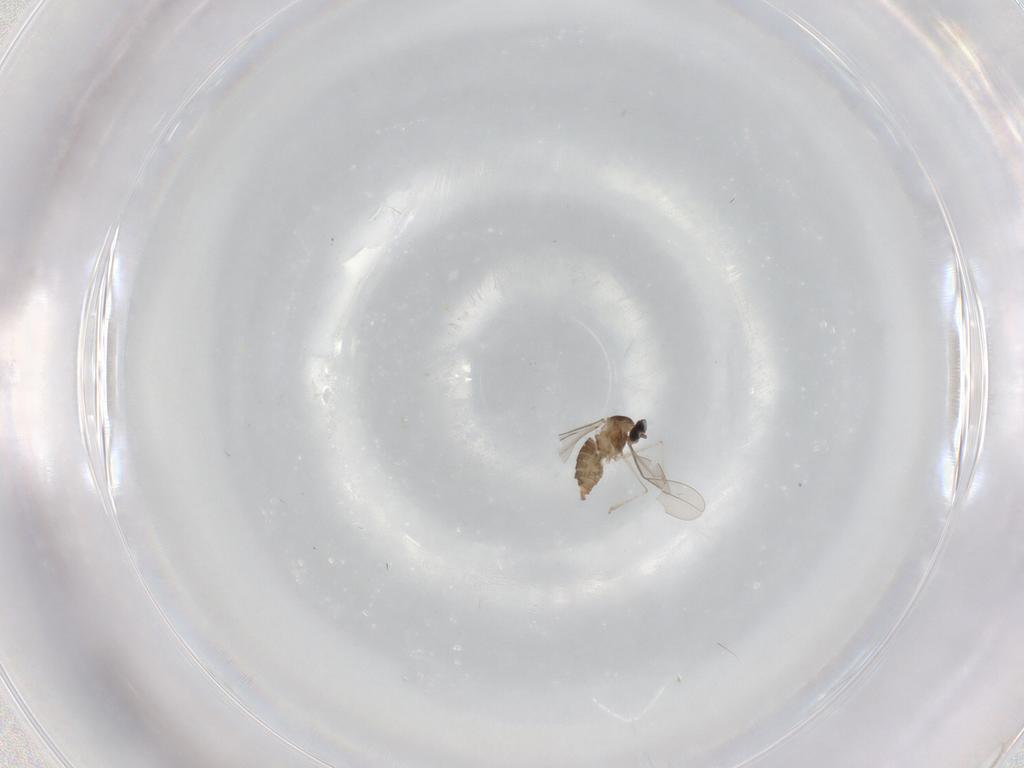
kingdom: Animalia
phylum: Arthropoda
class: Insecta
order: Diptera
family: Cecidomyiidae
